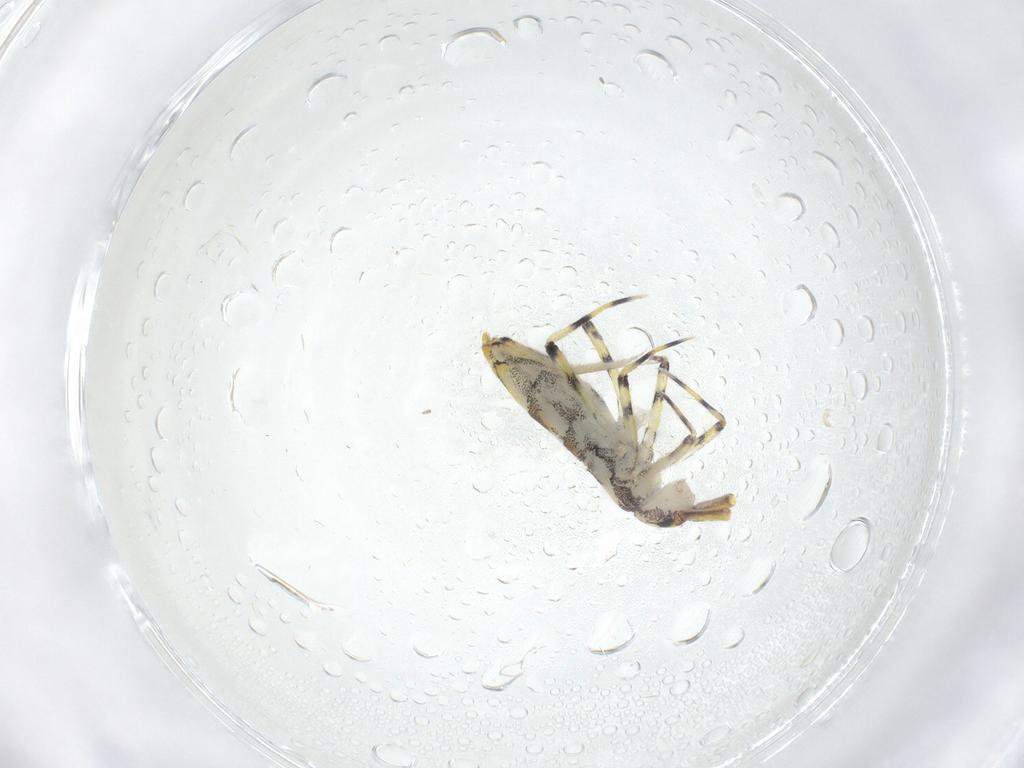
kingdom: Animalia
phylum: Arthropoda
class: Collembola
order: Entomobryomorpha
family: Entomobryidae
